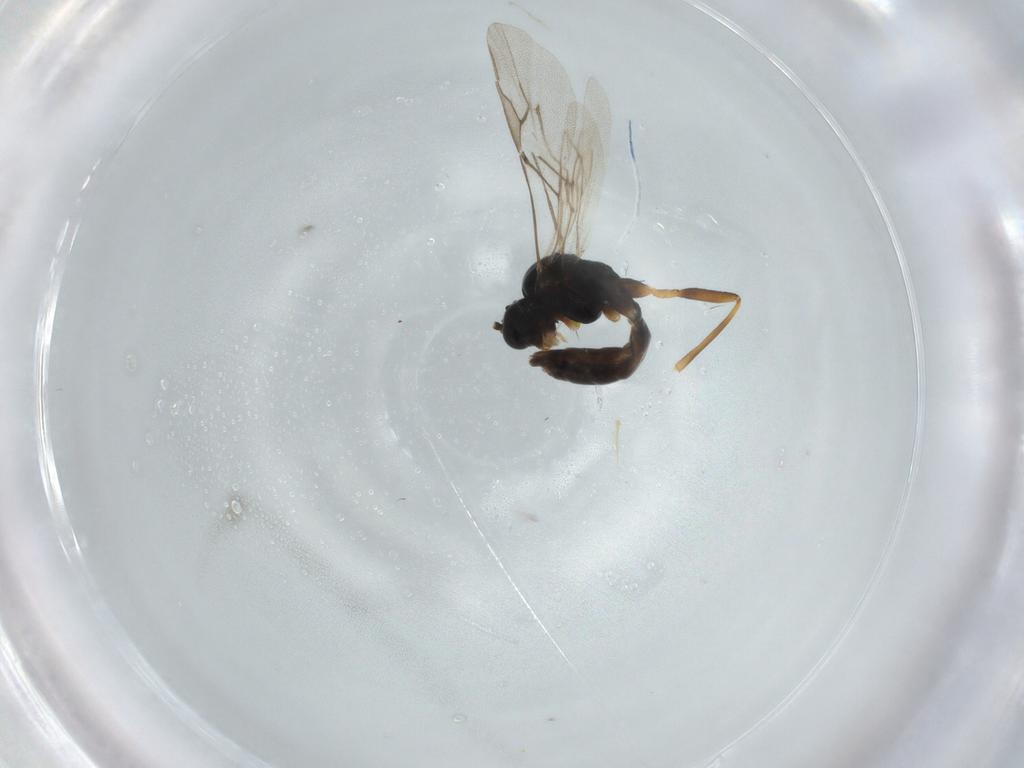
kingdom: Animalia
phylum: Arthropoda
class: Insecta
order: Hymenoptera
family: Braconidae
